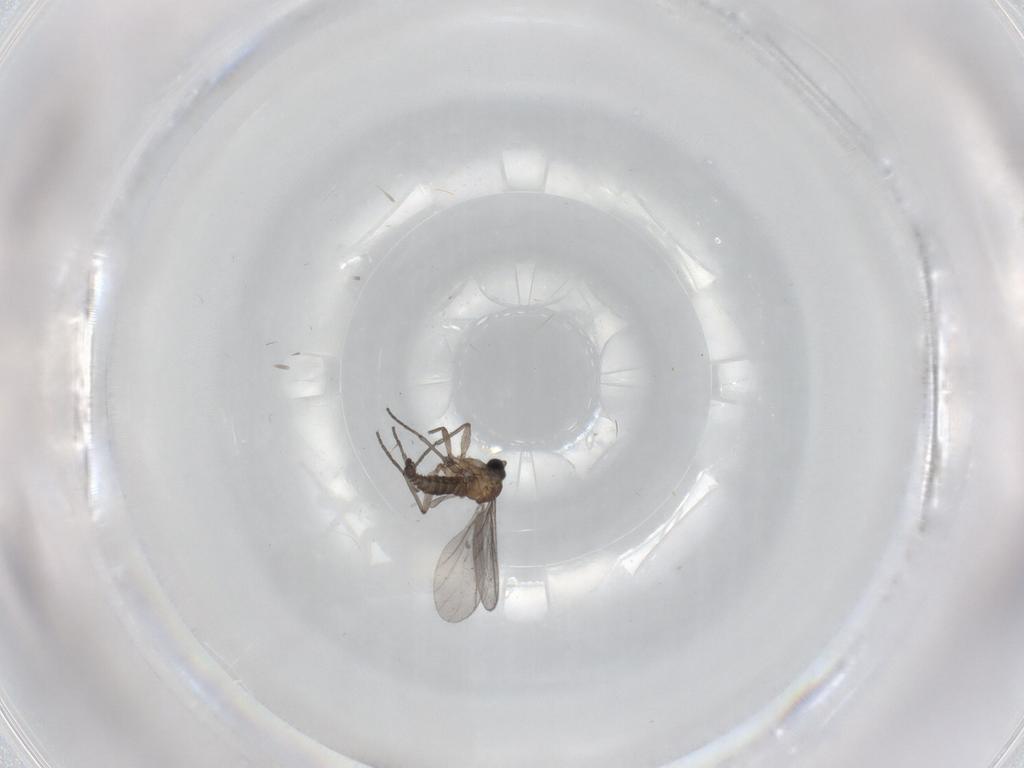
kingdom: Animalia
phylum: Arthropoda
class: Insecta
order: Diptera
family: Sciaridae
